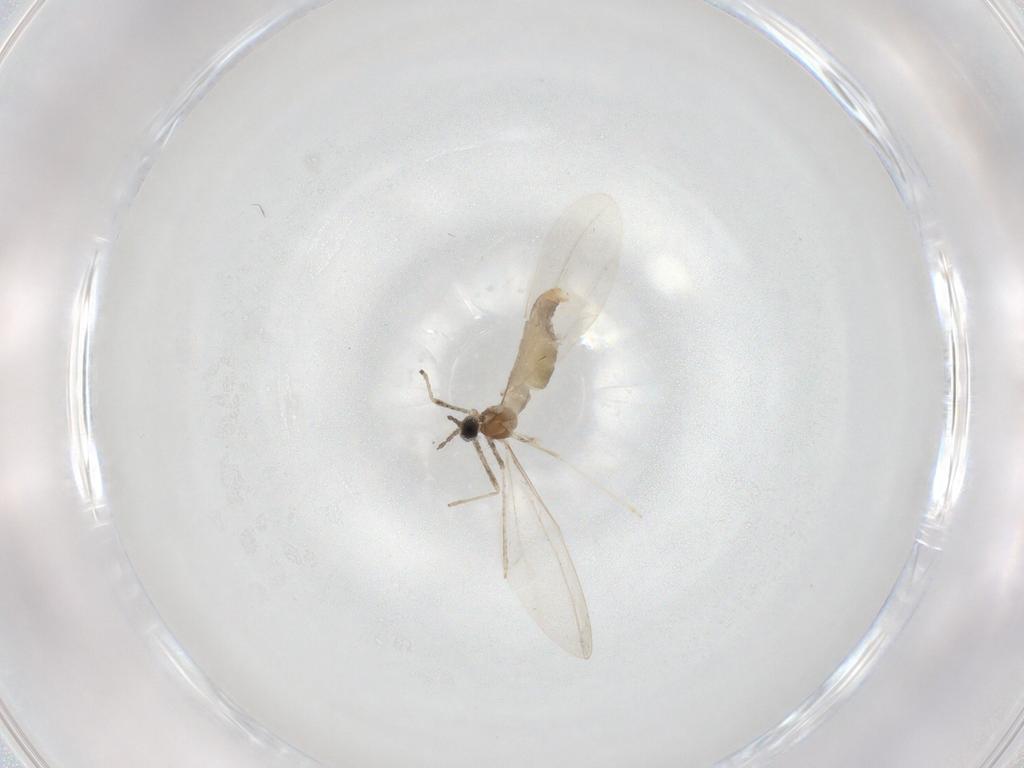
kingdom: Animalia
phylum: Arthropoda
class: Insecta
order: Diptera
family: Cecidomyiidae
